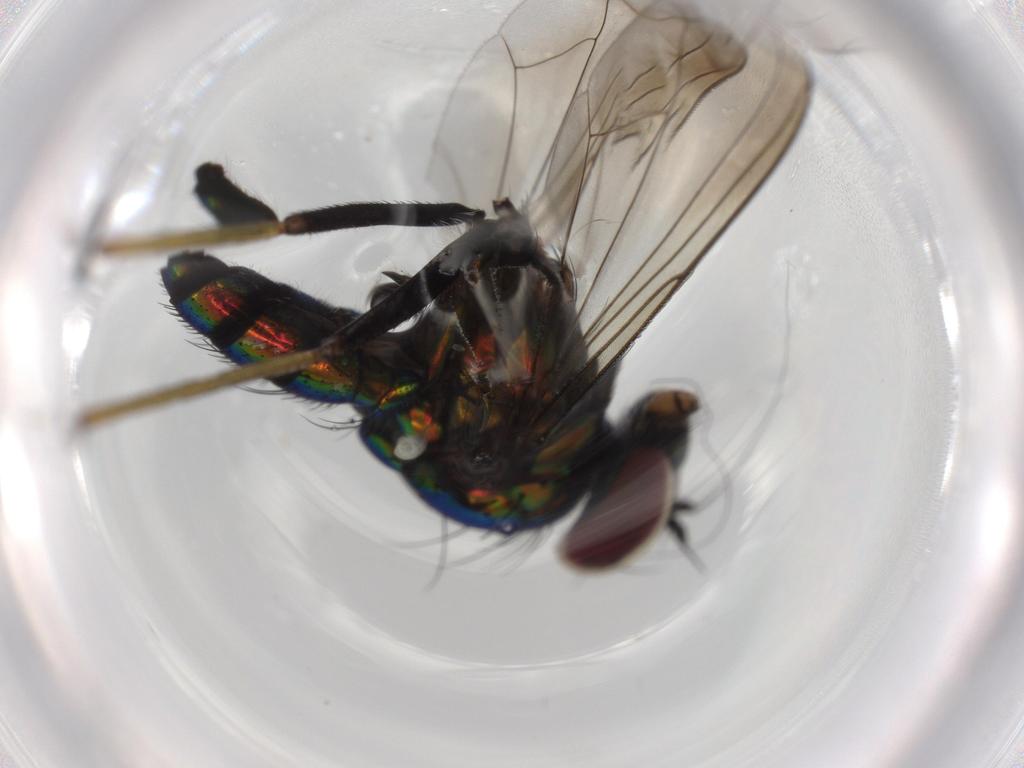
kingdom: Animalia
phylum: Arthropoda
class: Insecta
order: Diptera
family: Dolichopodidae
